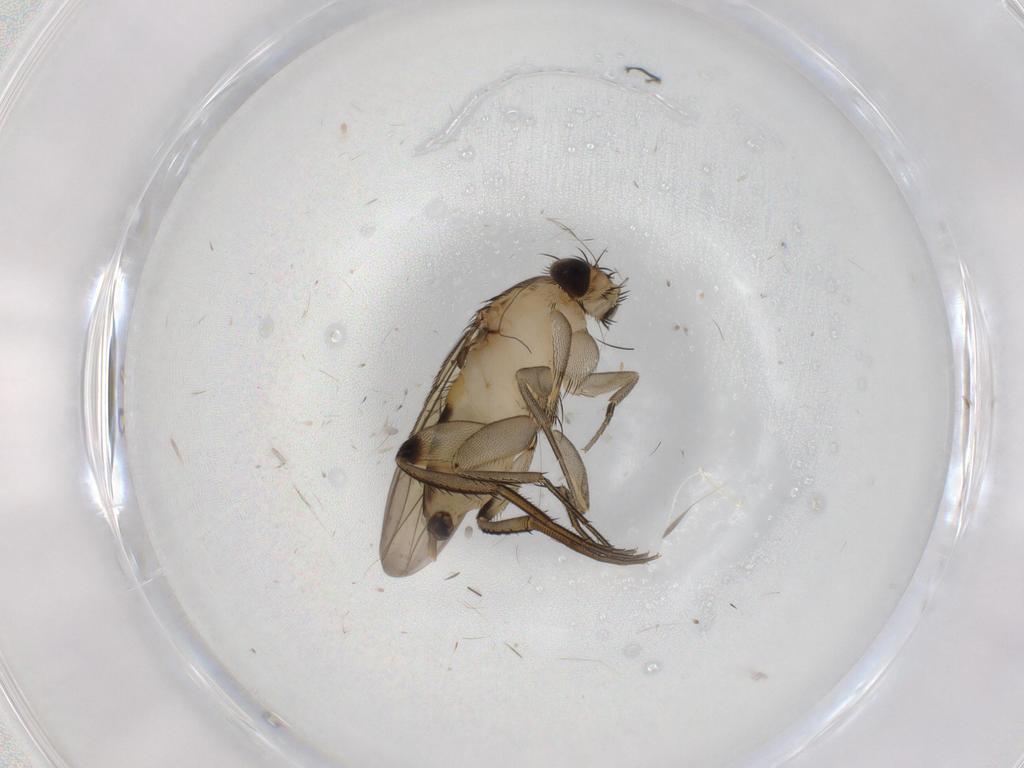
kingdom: Animalia
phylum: Arthropoda
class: Insecta
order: Diptera
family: Phoridae
